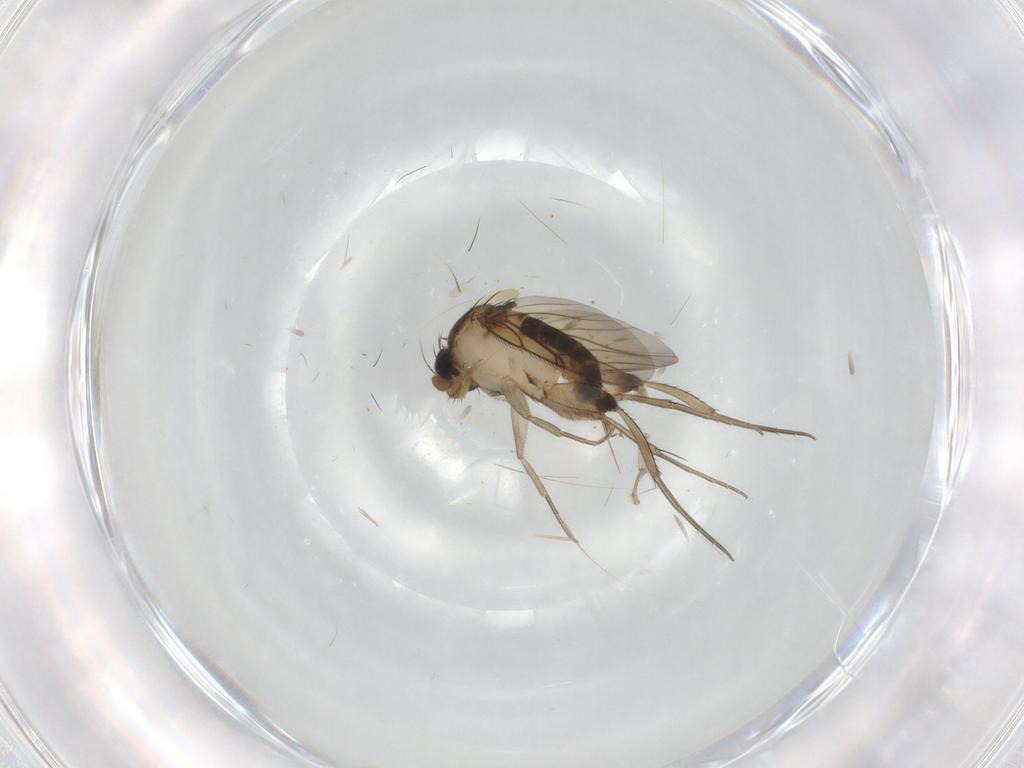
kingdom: Animalia
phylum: Arthropoda
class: Insecta
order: Diptera
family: Phoridae
